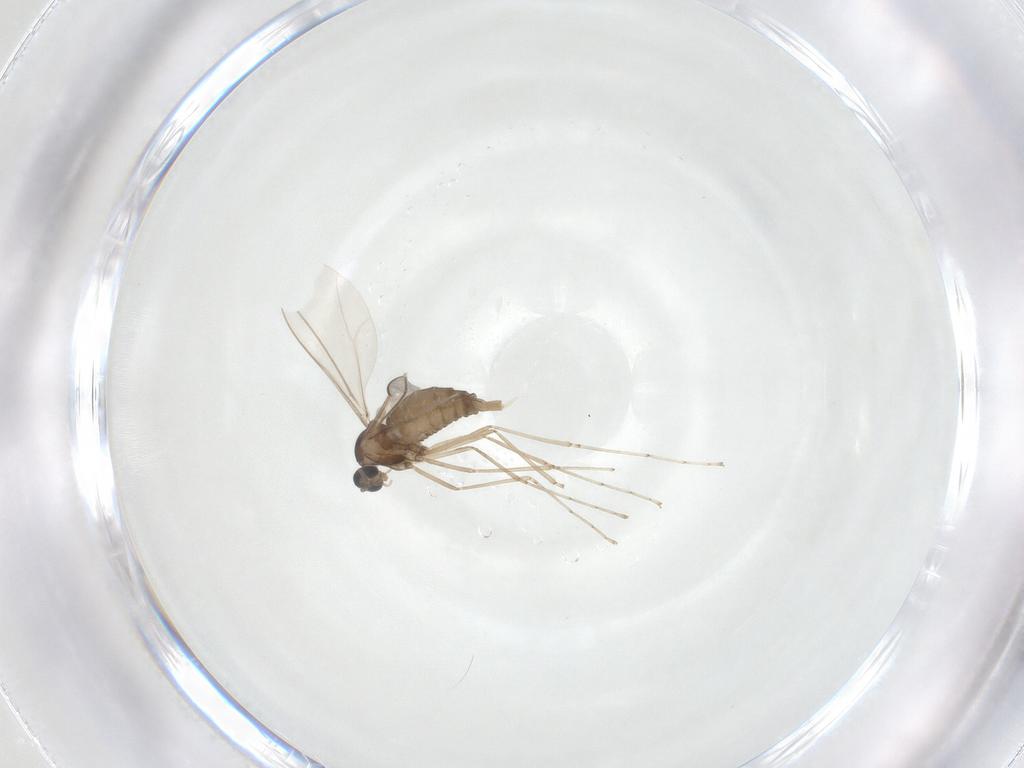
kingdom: Animalia
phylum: Arthropoda
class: Insecta
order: Diptera
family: Cecidomyiidae
